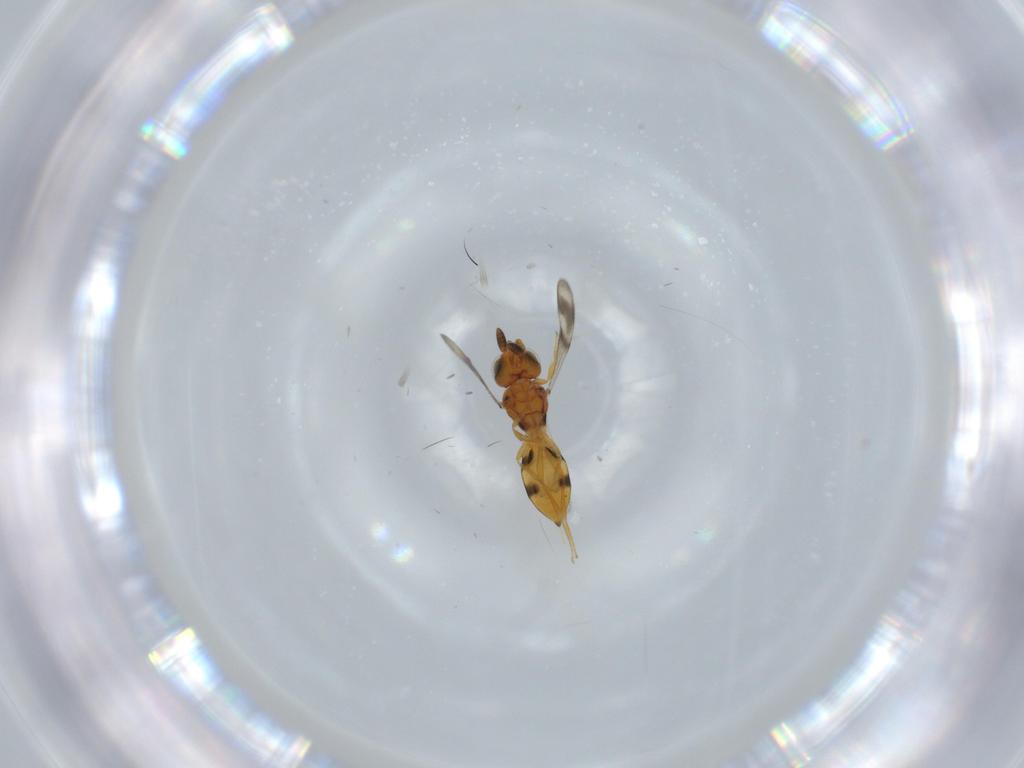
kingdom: Animalia
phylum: Arthropoda
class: Insecta
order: Hymenoptera
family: Scelionidae
